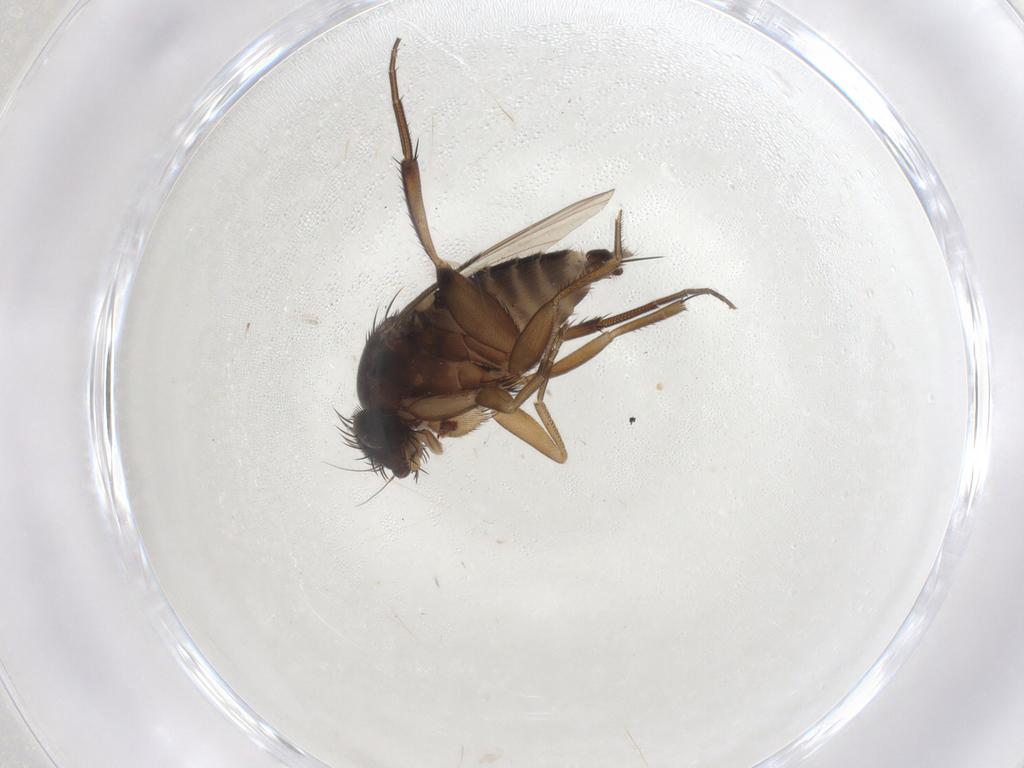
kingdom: Animalia
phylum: Arthropoda
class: Insecta
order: Diptera
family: Phoridae
